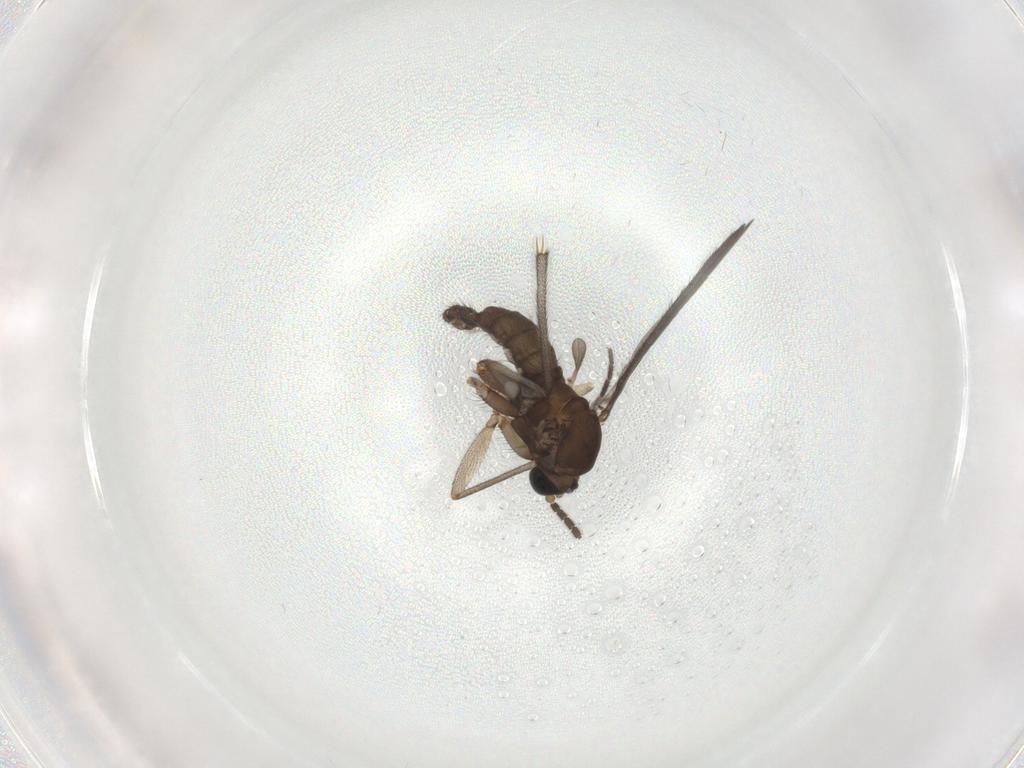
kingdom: Animalia
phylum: Arthropoda
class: Insecta
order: Diptera
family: Sciaridae
